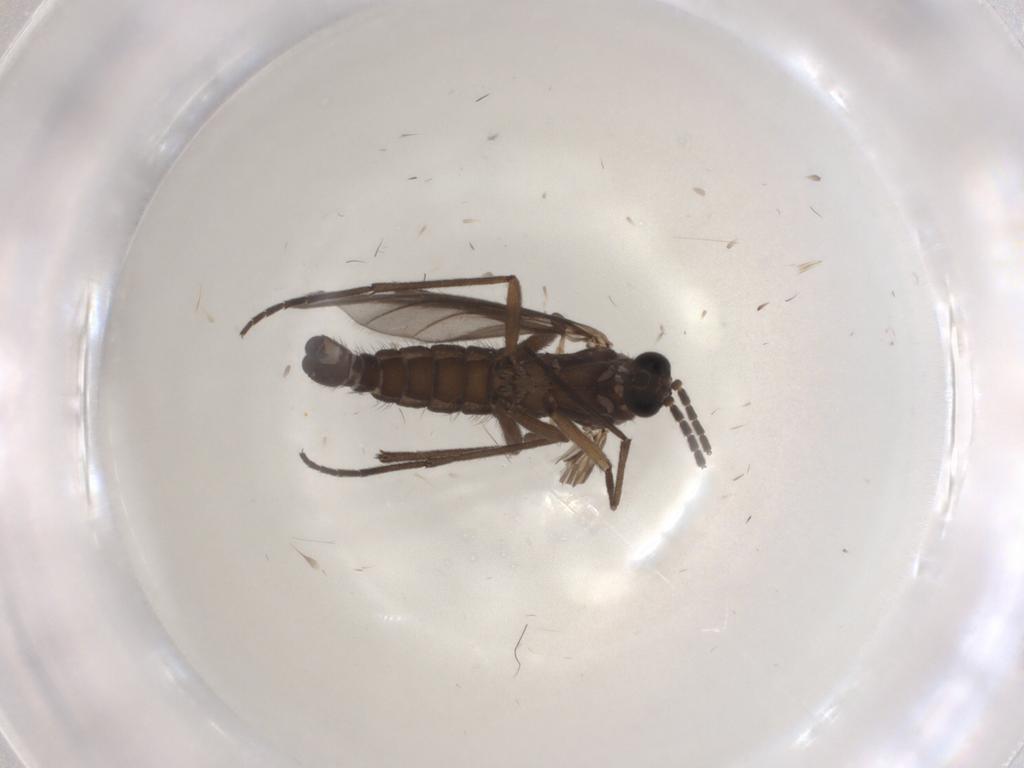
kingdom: Animalia
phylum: Arthropoda
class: Insecta
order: Diptera
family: Sciaridae
